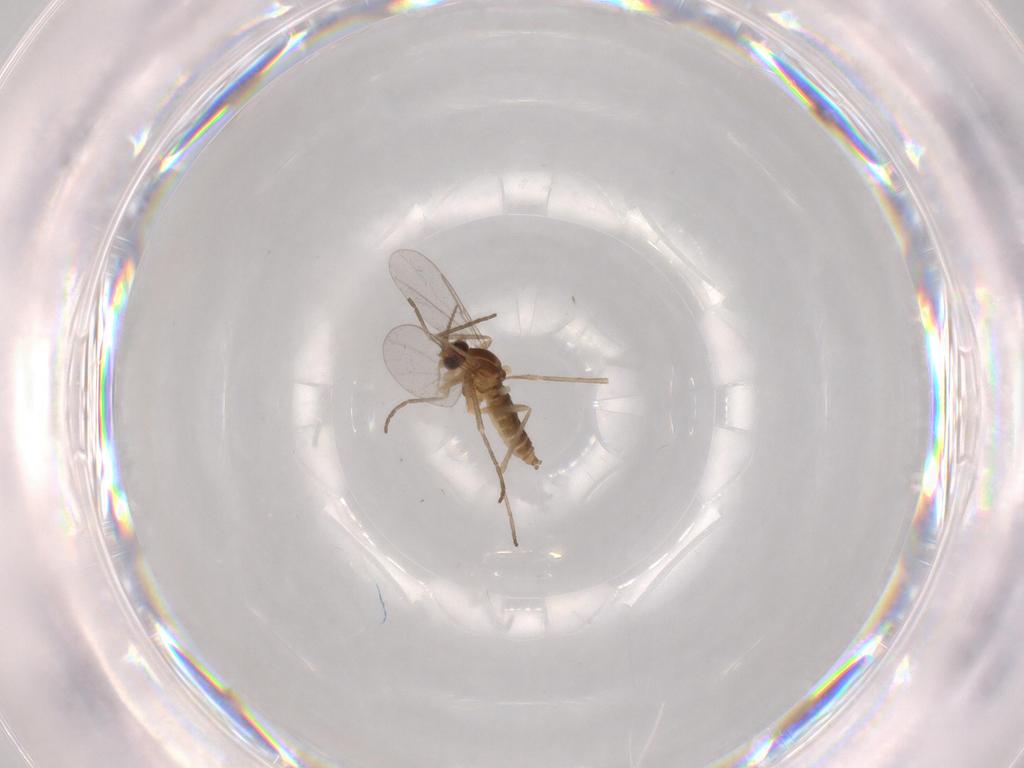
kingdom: Animalia
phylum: Arthropoda
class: Insecta
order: Diptera
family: Cecidomyiidae
